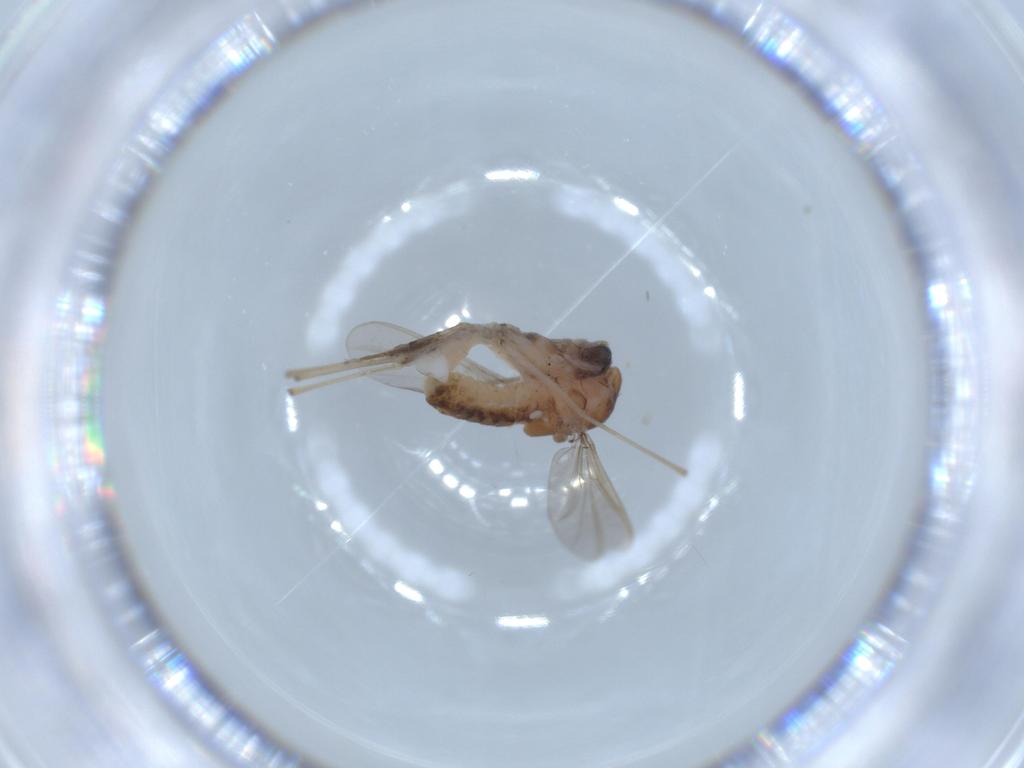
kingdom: Animalia
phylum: Arthropoda
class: Insecta
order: Diptera
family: Chironomidae
